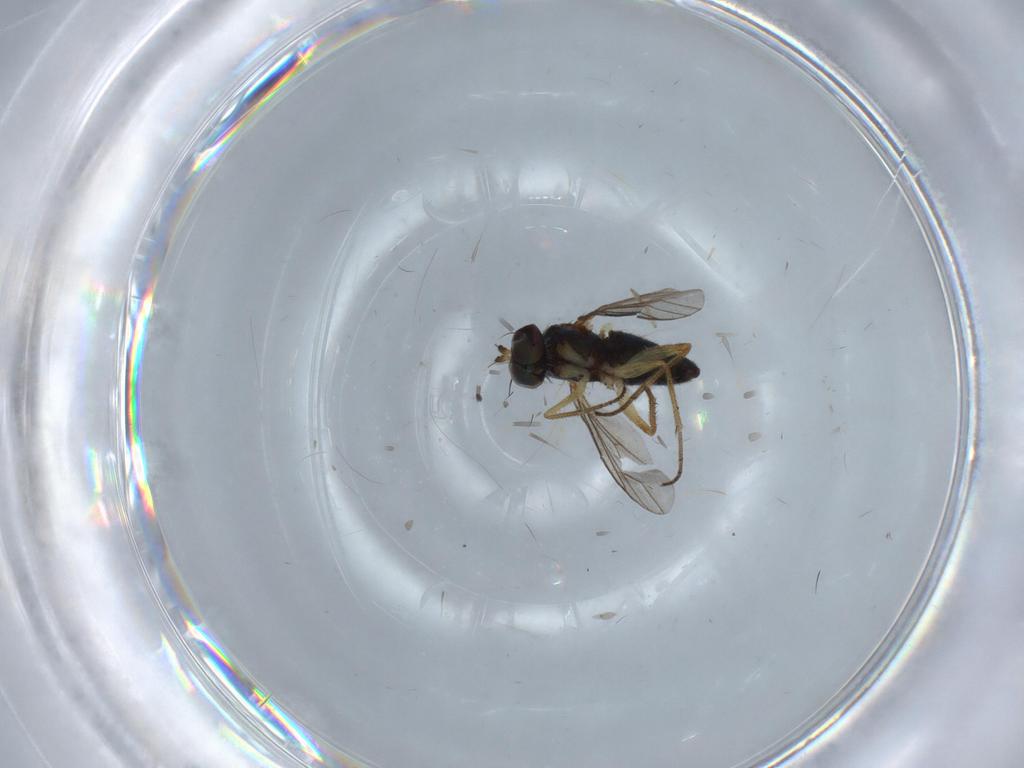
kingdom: Animalia
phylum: Arthropoda
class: Insecta
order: Diptera
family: Dolichopodidae
